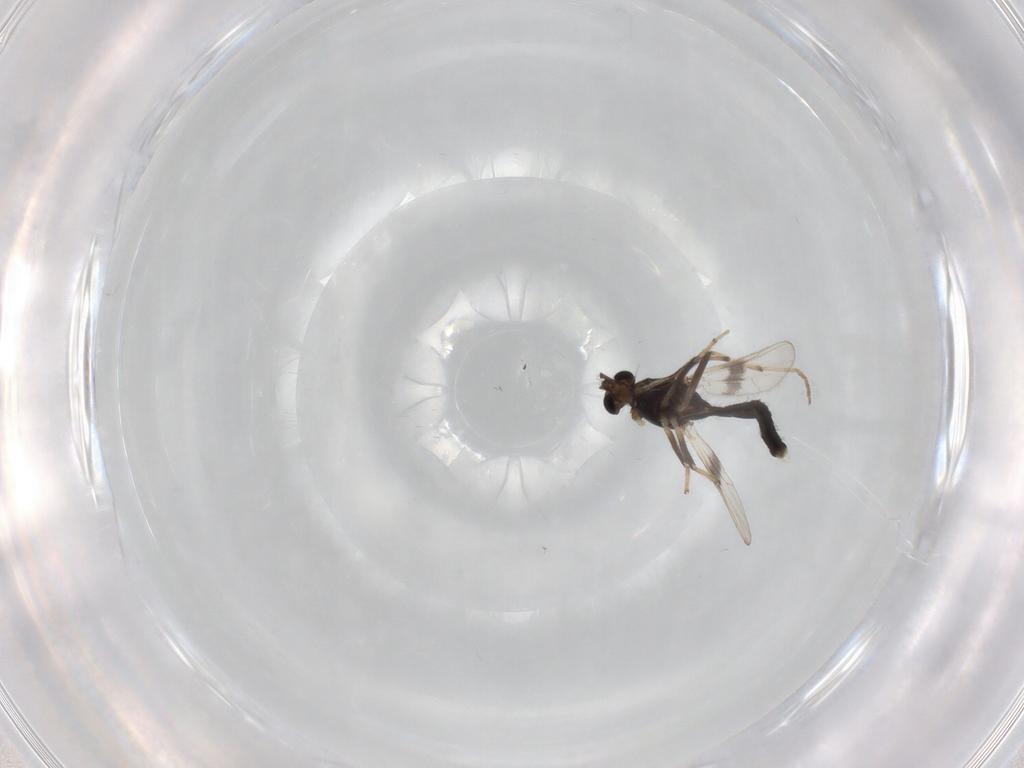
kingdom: Animalia
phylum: Arthropoda
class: Insecta
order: Diptera
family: Chironomidae
